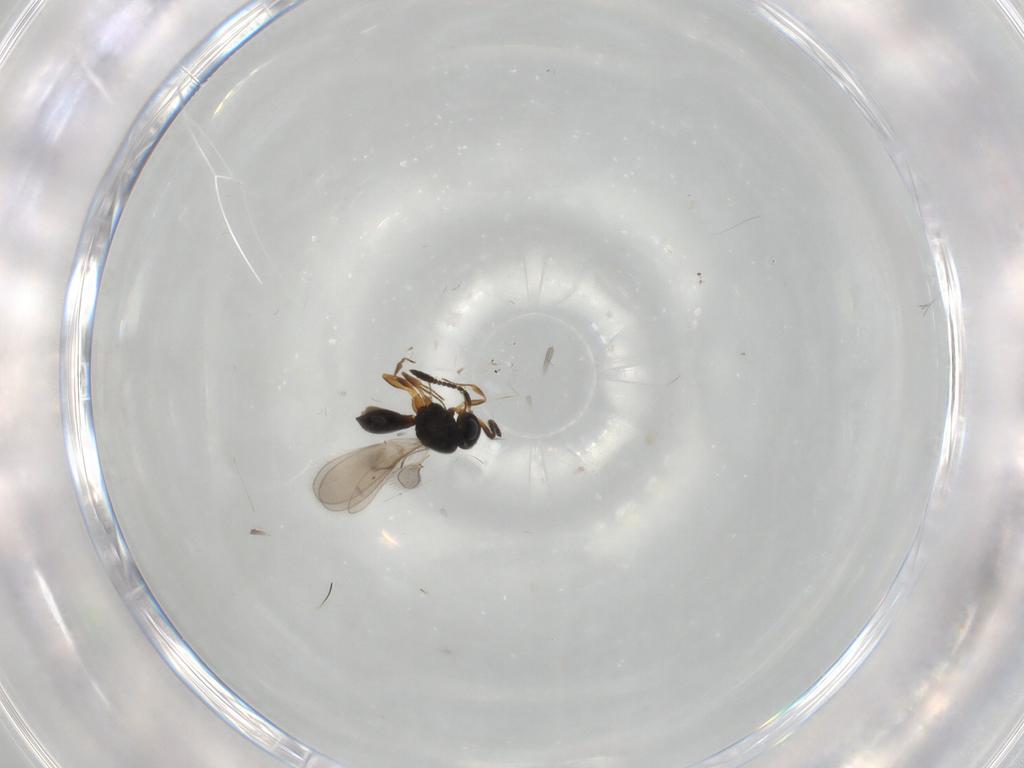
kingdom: Animalia
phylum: Arthropoda
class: Insecta
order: Hymenoptera
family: Scelionidae
